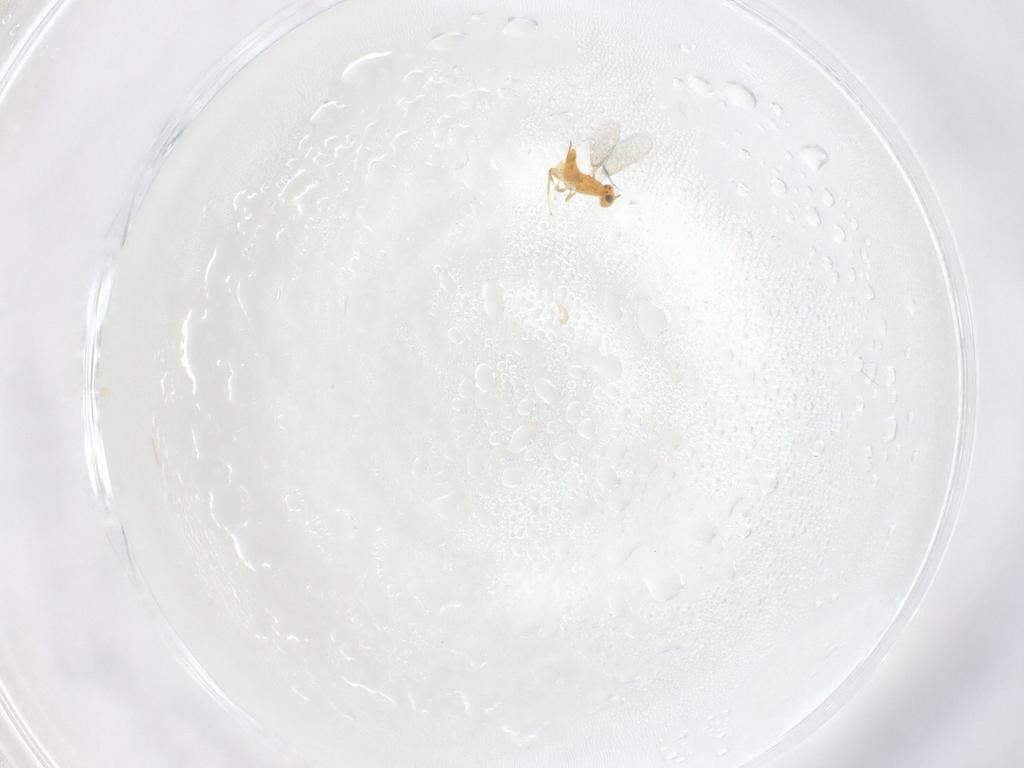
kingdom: Animalia
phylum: Arthropoda
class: Insecta
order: Hymenoptera
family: Aphelinidae
